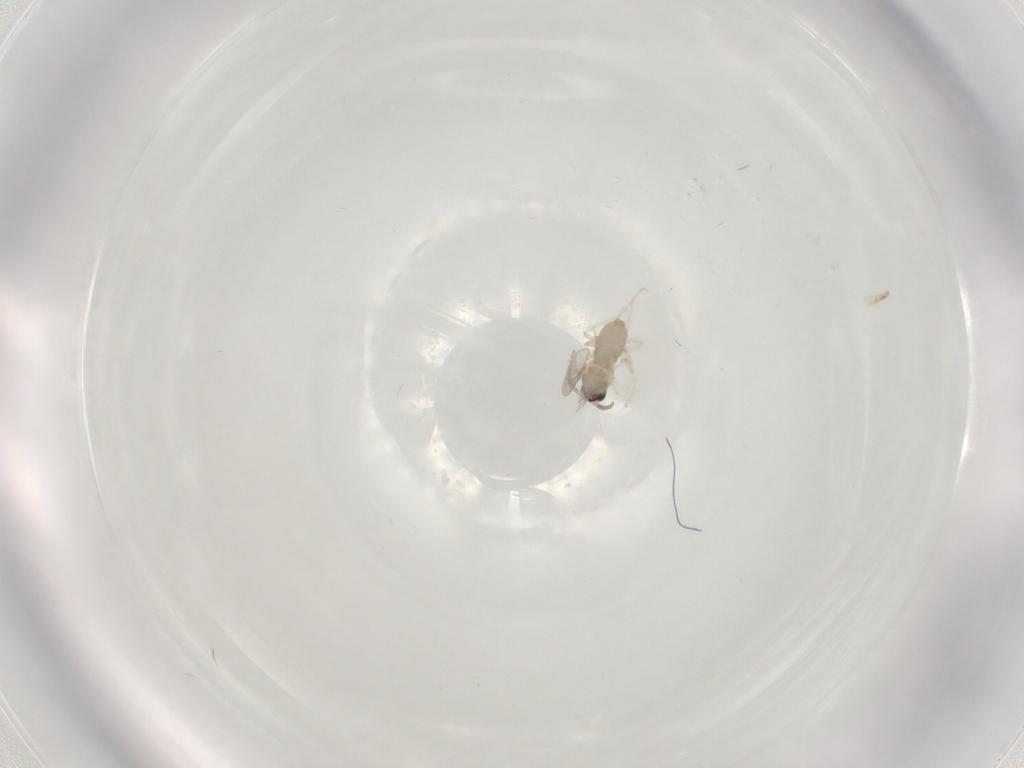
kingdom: Animalia
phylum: Arthropoda
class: Insecta
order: Diptera
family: Cecidomyiidae
